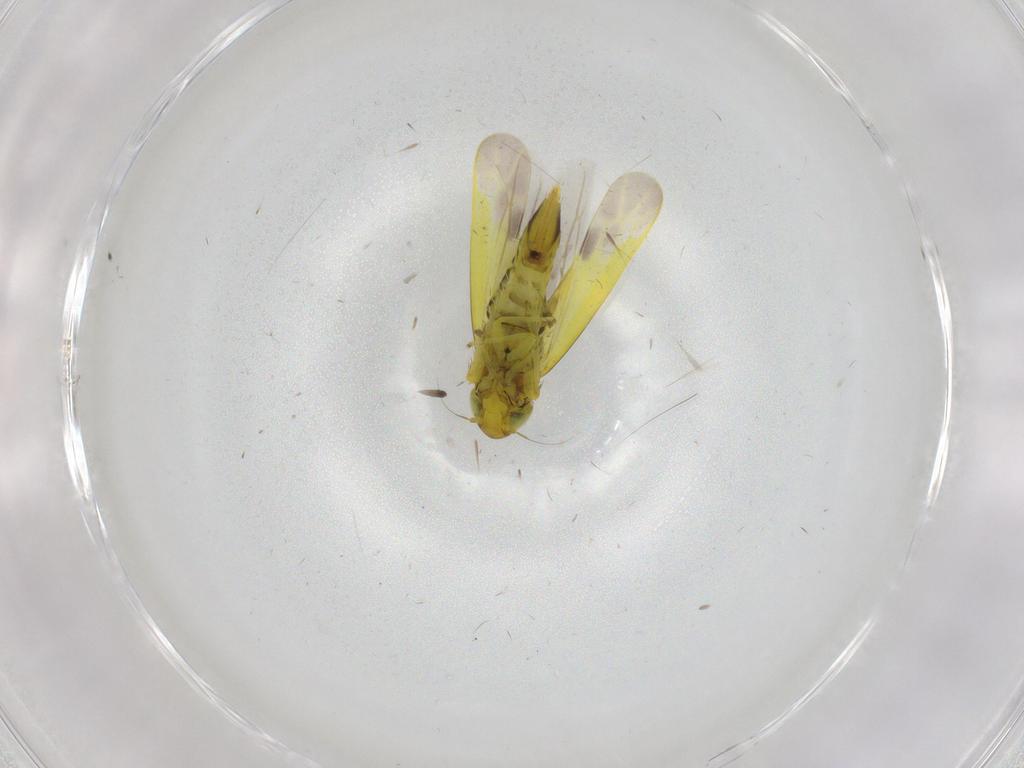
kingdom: Animalia
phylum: Arthropoda
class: Insecta
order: Hemiptera
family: Cicadellidae
